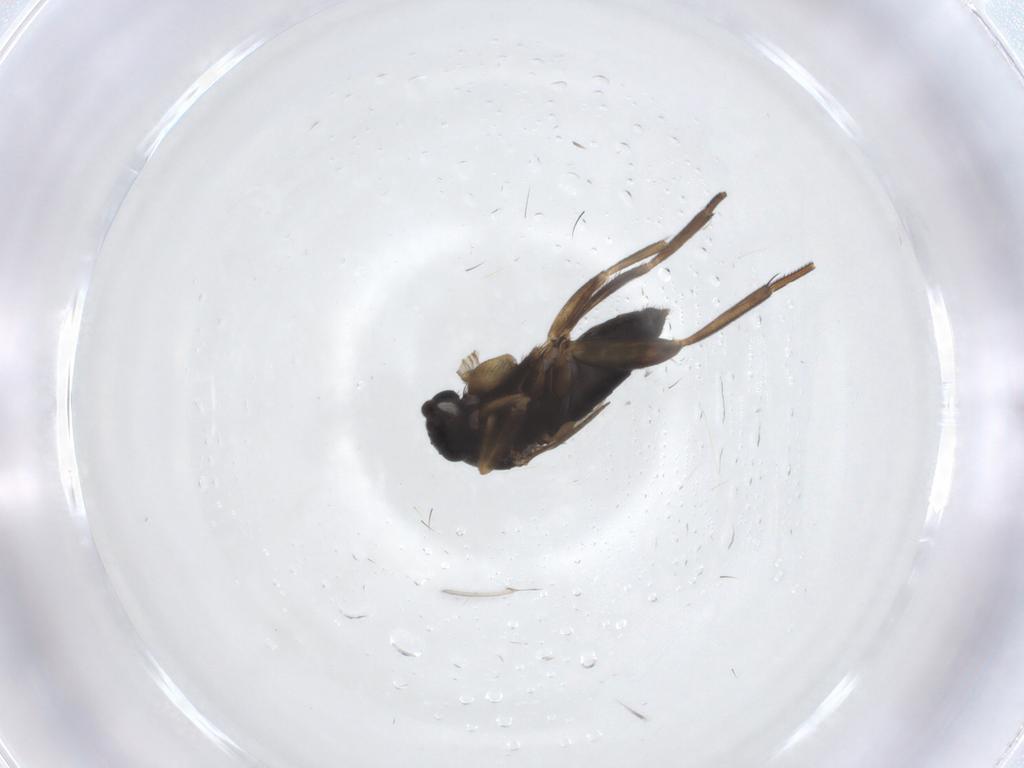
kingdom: Animalia
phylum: Arthropoda
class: Insecta
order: Diptera
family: Phoridae
